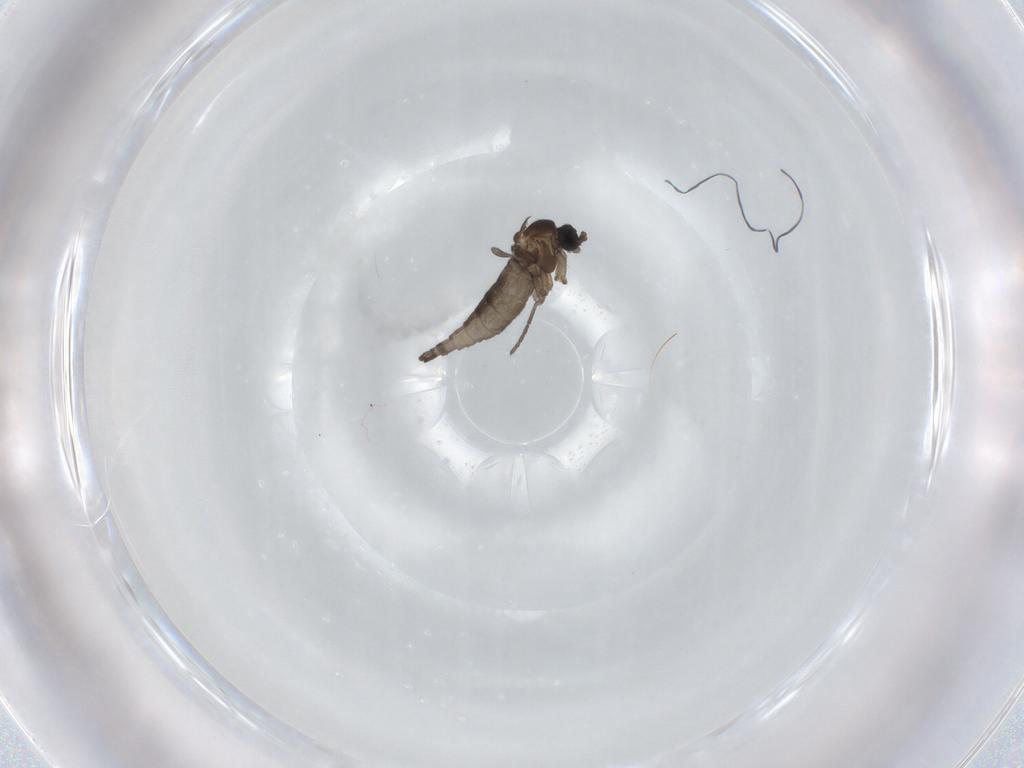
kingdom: Animalia
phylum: Arthropoda
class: Insecta
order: Diptera
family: Sciaridae
